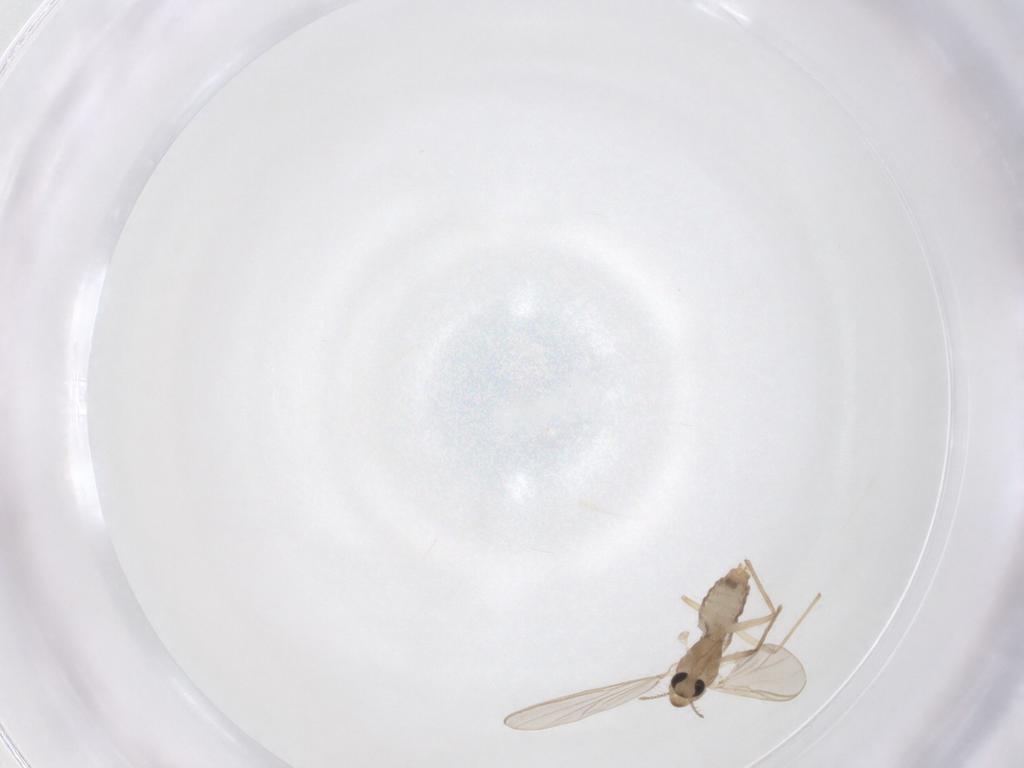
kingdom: Animalia
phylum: Arthropoda
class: Insecta
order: Diptera
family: Chironomidae
